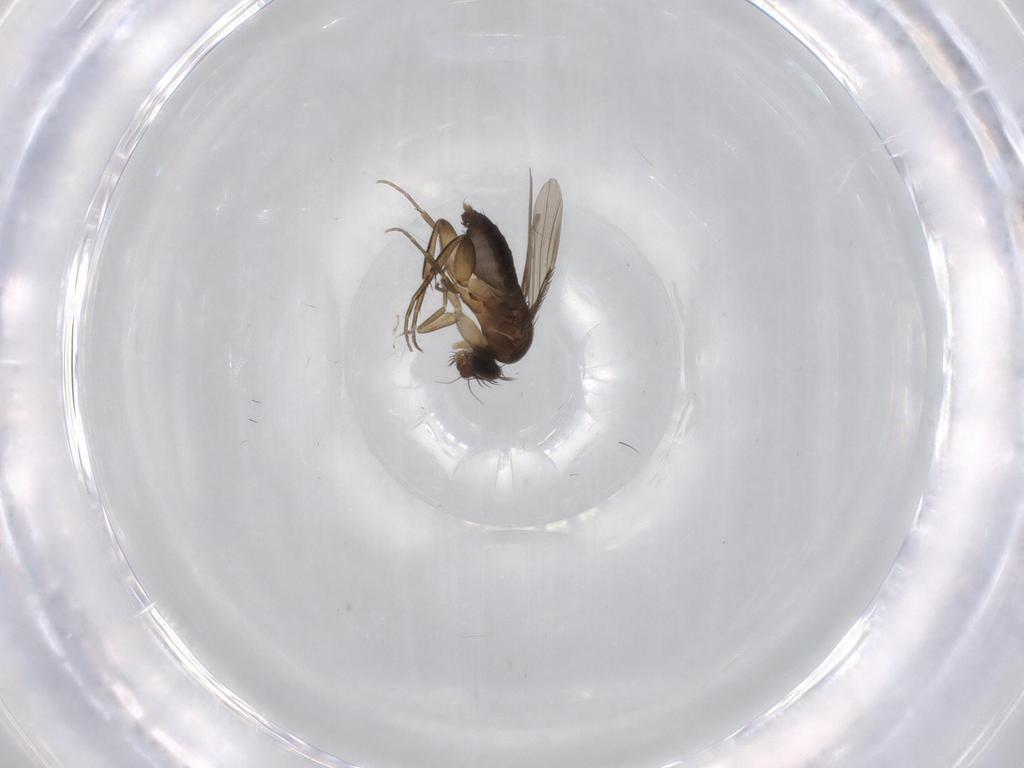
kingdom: Animalia
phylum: Arthropoda
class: Insecta
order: Diptera
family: Phoridae
